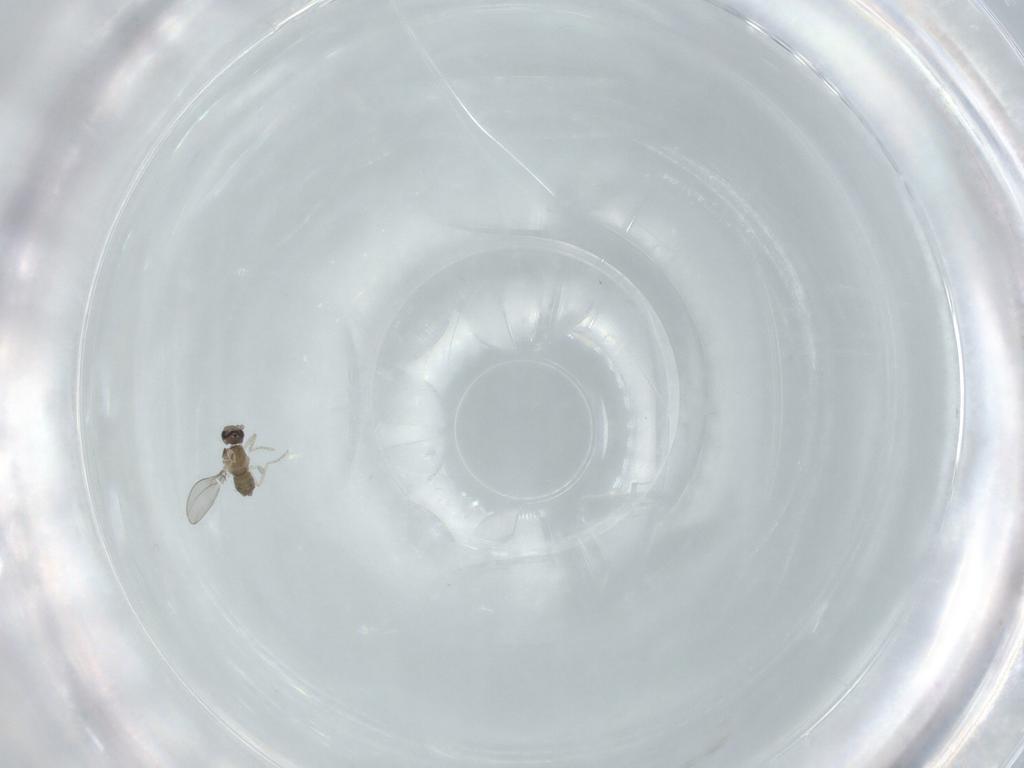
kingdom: Animalia
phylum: Arthropoda
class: Insecta
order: Diptera
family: Cecidomyiidae
